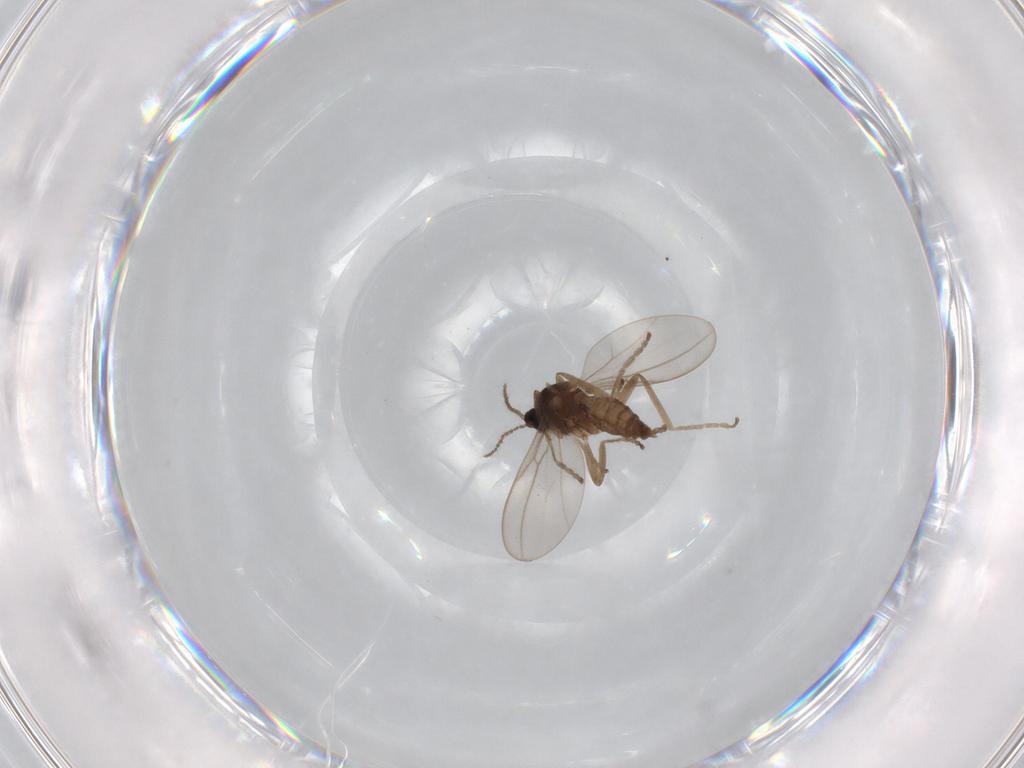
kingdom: Animalia
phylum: Arthropoda
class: Insecta
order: Diptera
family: Cecidomyiidae
